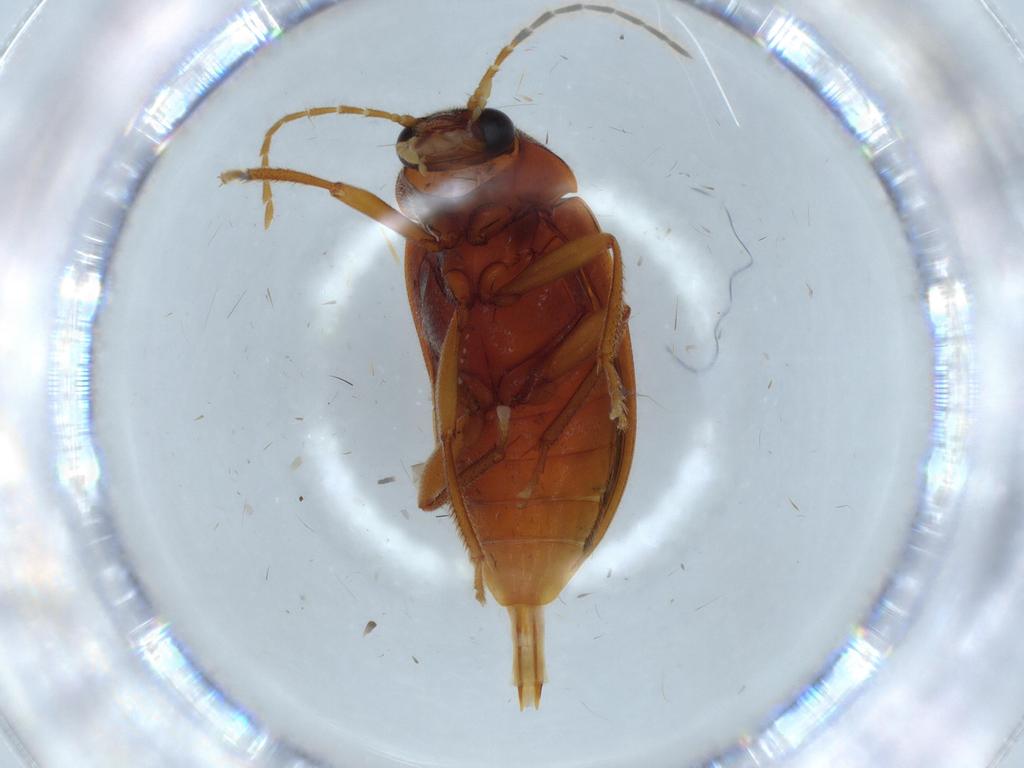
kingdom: Animalia
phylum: Arthropoda
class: Insecta
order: Coleoptera
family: Ptilodactylidae
